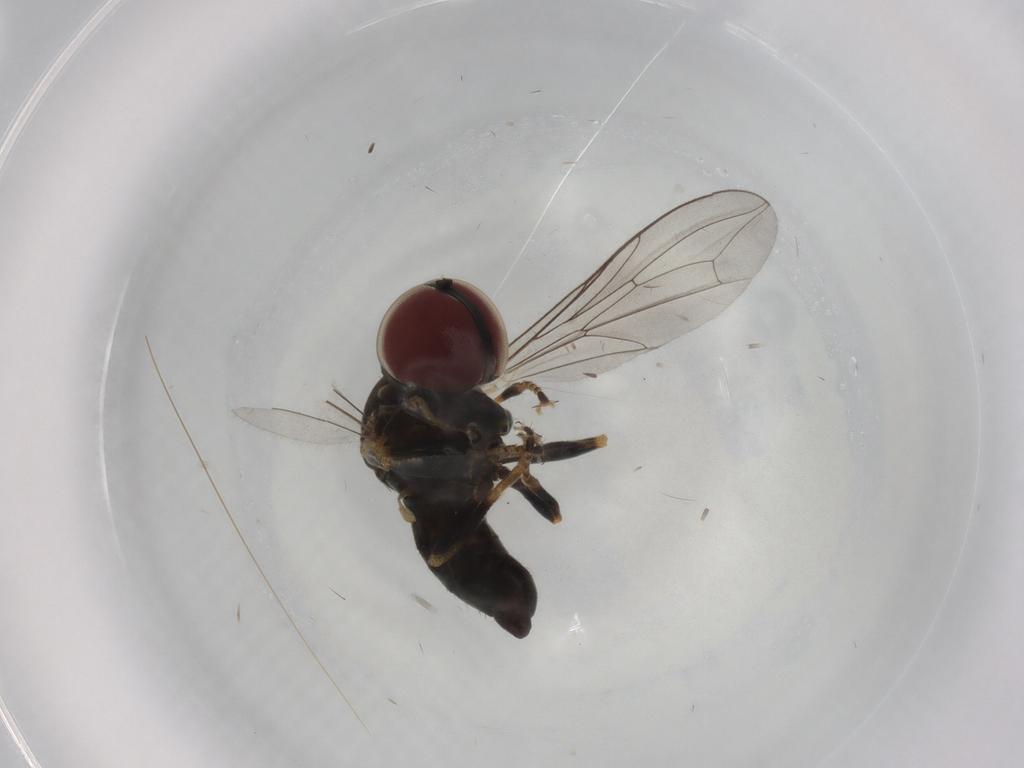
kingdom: Animalia
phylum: Arthropoda
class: Insecta
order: Diptera
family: Pipunculidae
